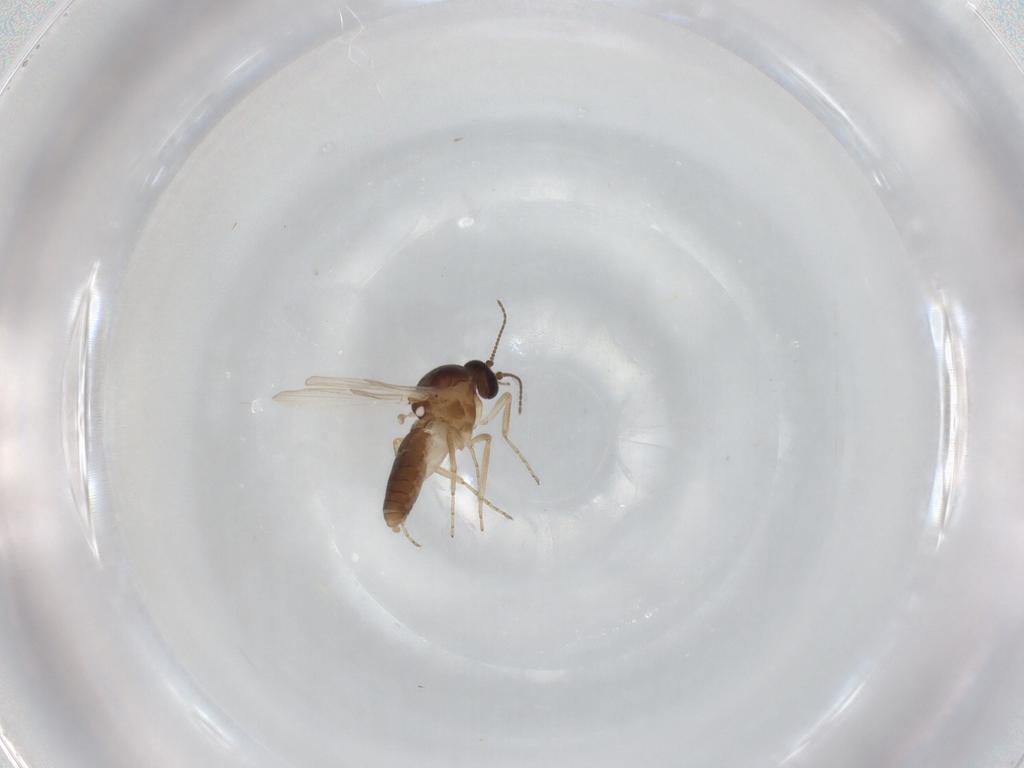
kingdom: Animalia
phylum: Arthropoda
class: Insecta
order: Diptera
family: Ceratopogonidae
